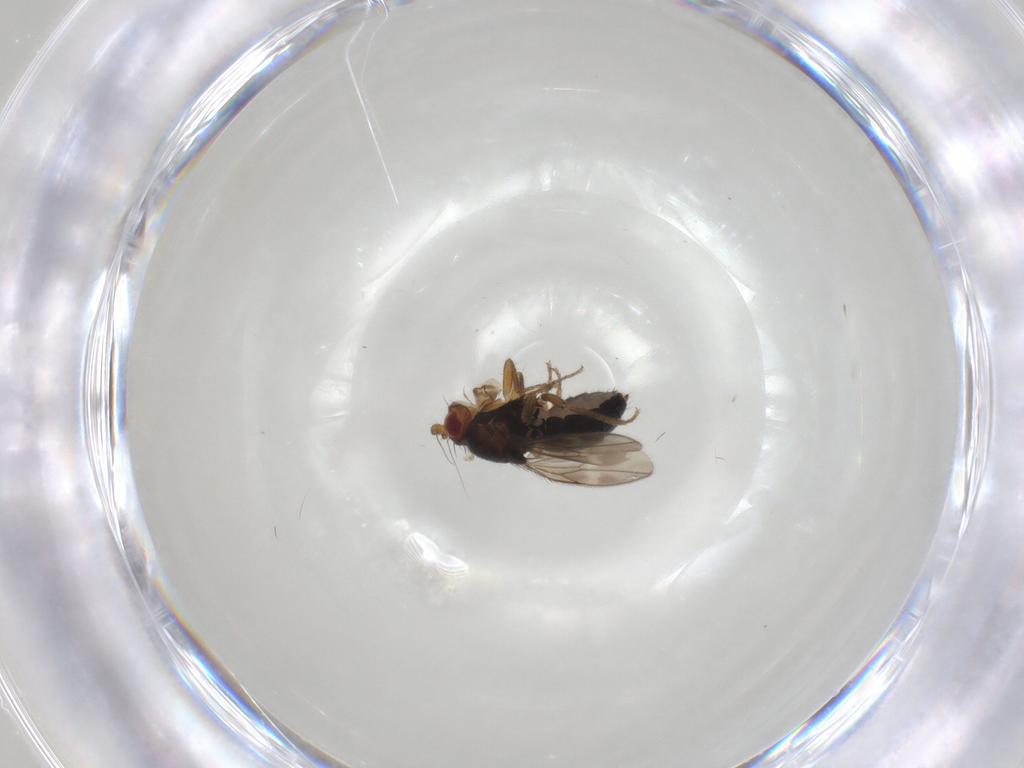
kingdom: Animalia
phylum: Arthropoda
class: Insecta
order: Diptera
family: Sphaeroceridae
